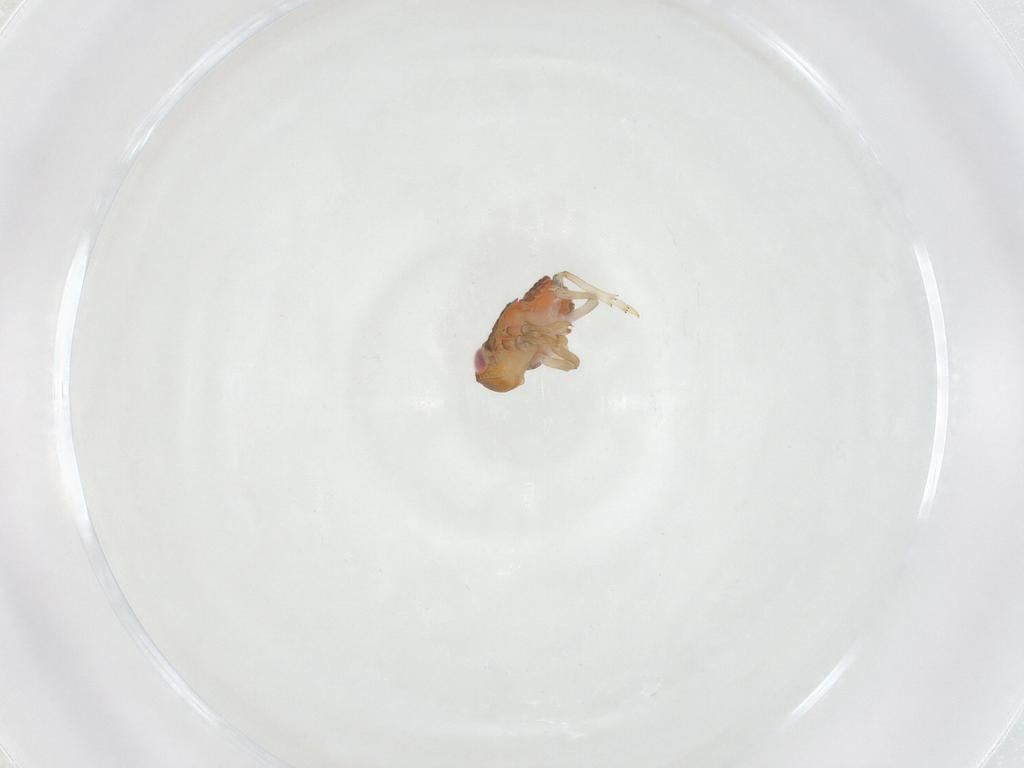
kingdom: Animalia
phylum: Arthropoda
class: Insecta
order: Hemiptera
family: Issidae
